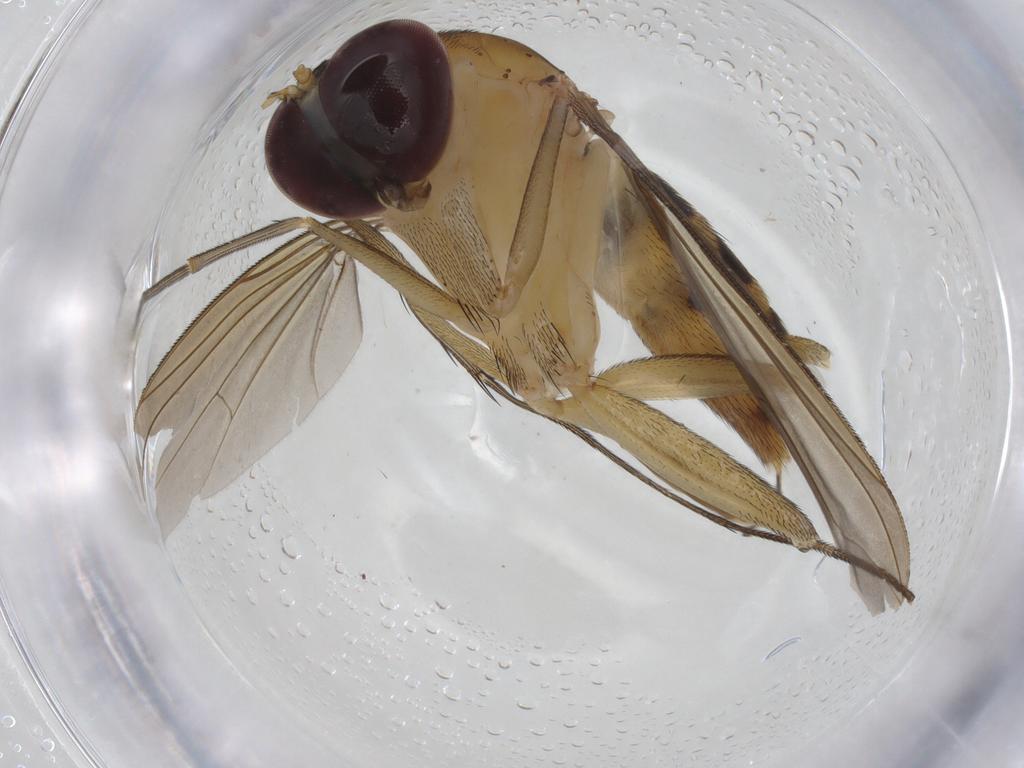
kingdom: Animalia
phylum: Arthropoda
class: Insecta
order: Diptera
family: Dolichopodidae
